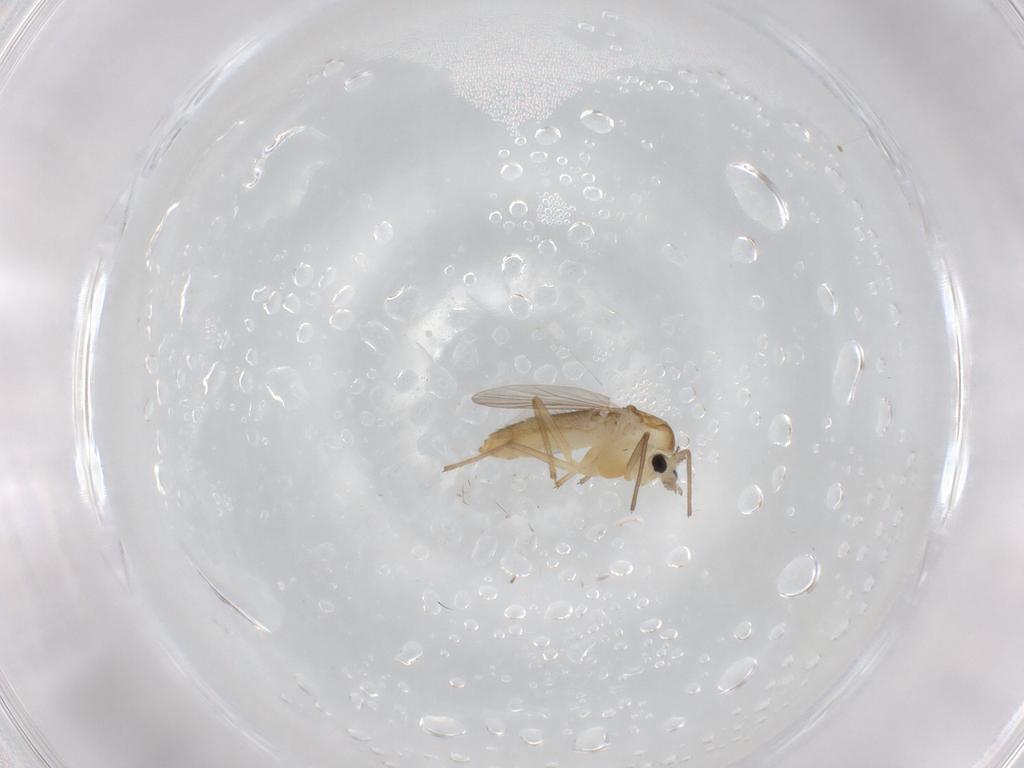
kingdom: Animalia
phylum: Arthropoda
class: Insecta
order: Diptera
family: Chironomidae
